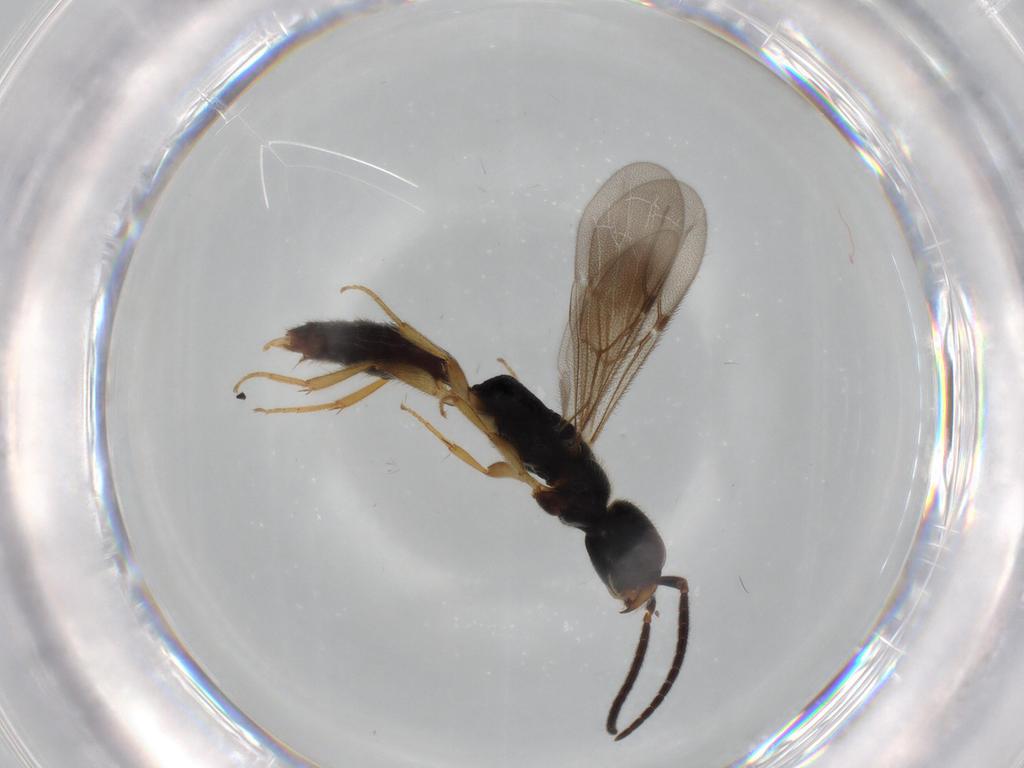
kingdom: Animalia
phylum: Arthropoda
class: Insecta
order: Hymenoptera
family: Bethylidae
